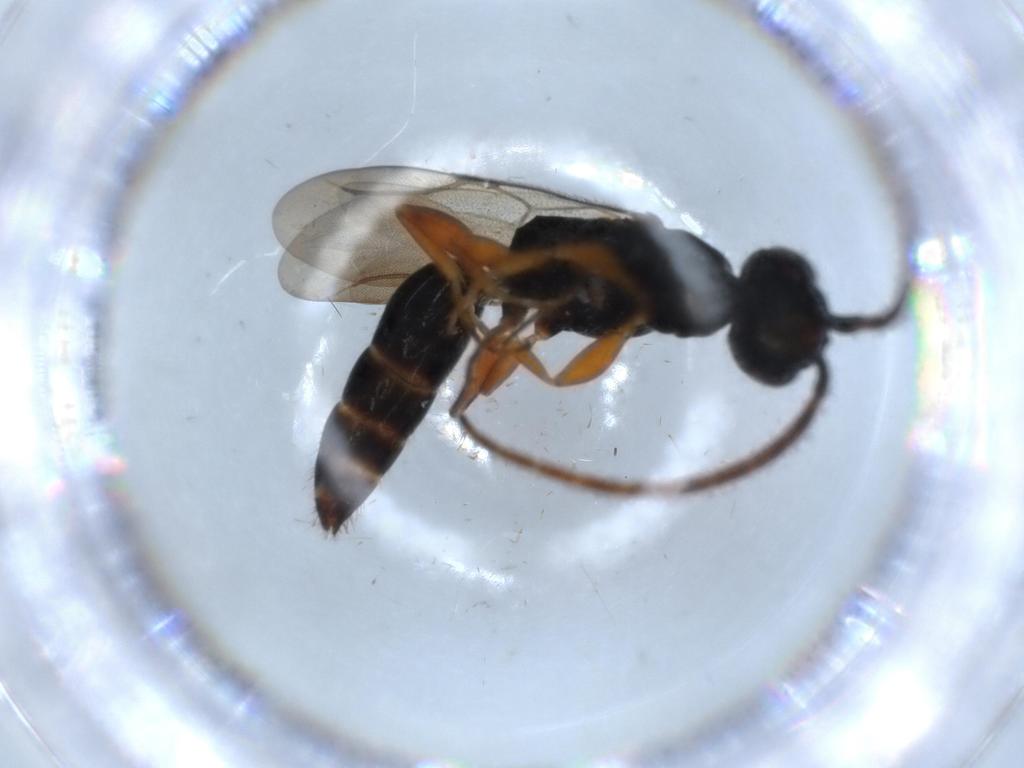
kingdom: Animalia
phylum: Arthropoda
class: Insecta
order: Hymenoptera
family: Bethylidae
